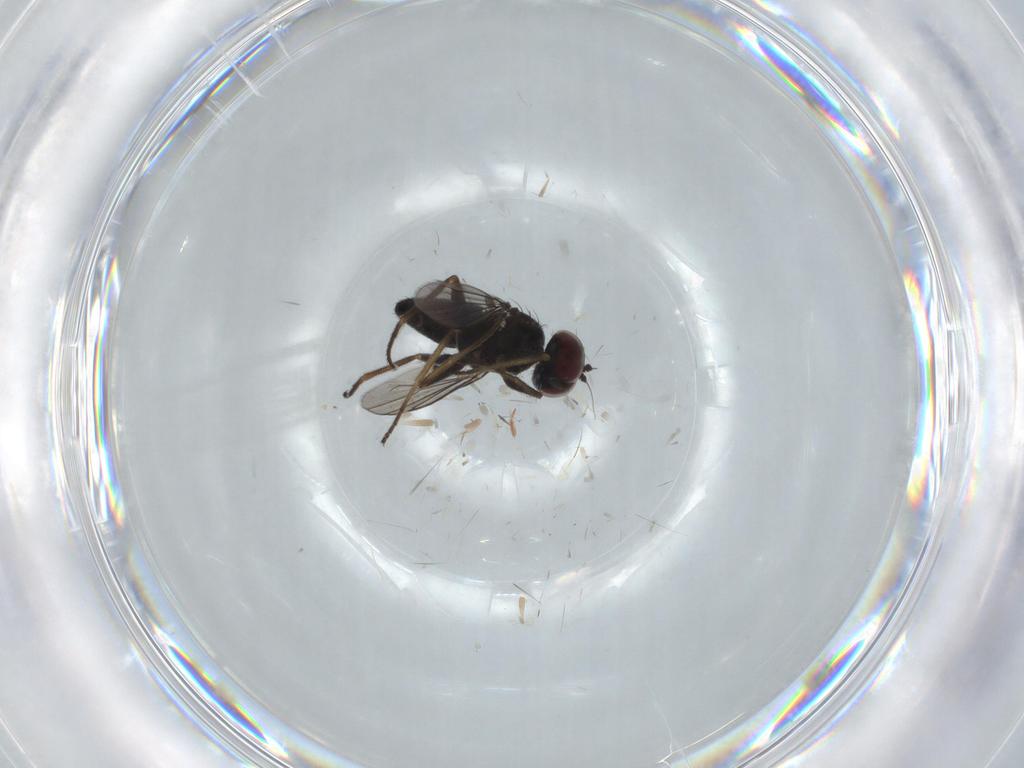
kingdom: Animalia
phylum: Arthropoda
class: Insecta
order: Diptera
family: Dolichopodidae
